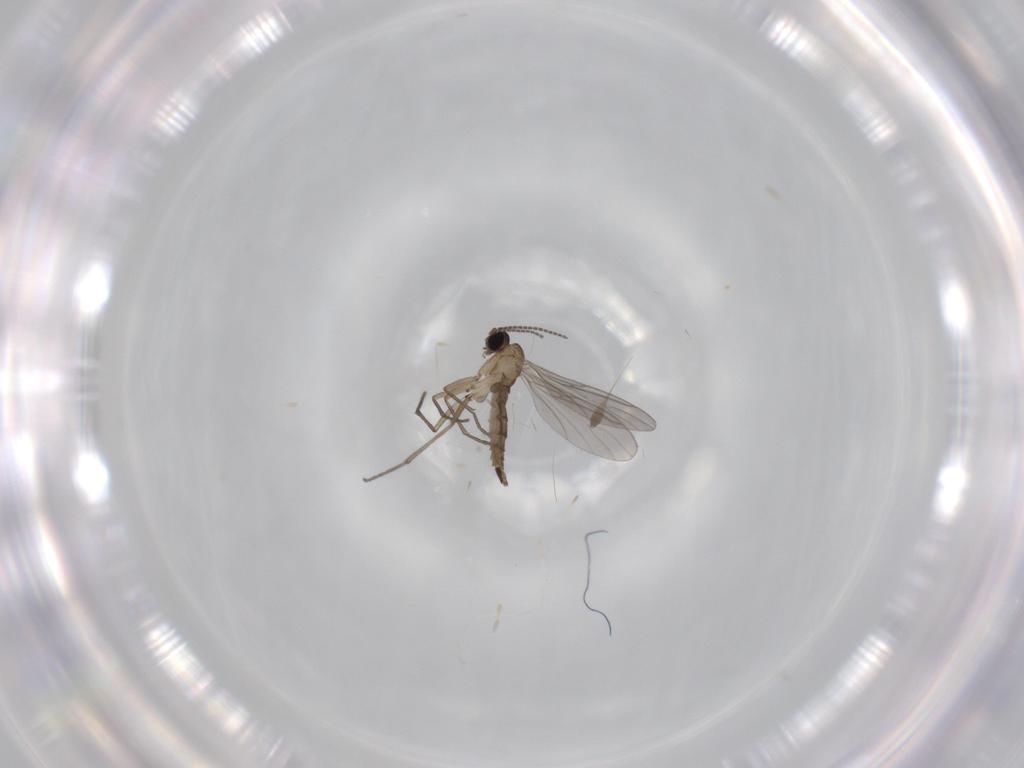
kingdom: Animalia
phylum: Arthropoda
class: Insecta
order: Diptera
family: Sciaridae
